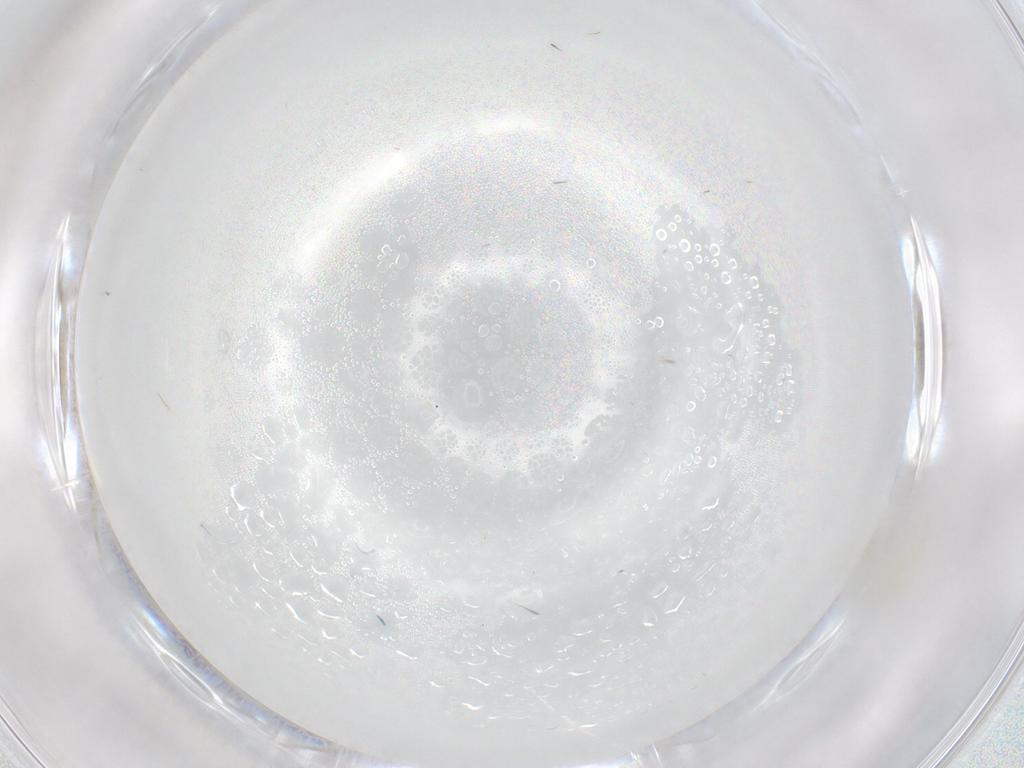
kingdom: Animalia
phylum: Arthropoda
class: Insecta
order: Diptera
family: Cecidomyiidae
